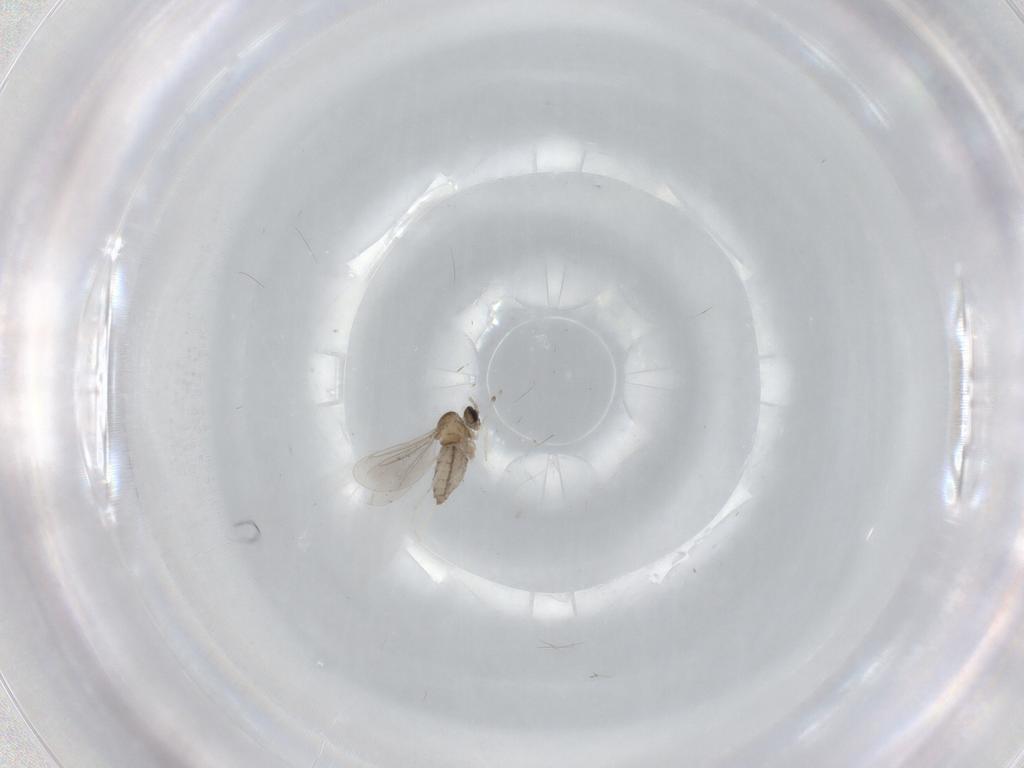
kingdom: Animalia
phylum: Arthropoda
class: Insecta
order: Diptera
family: Cecidomyiidae
